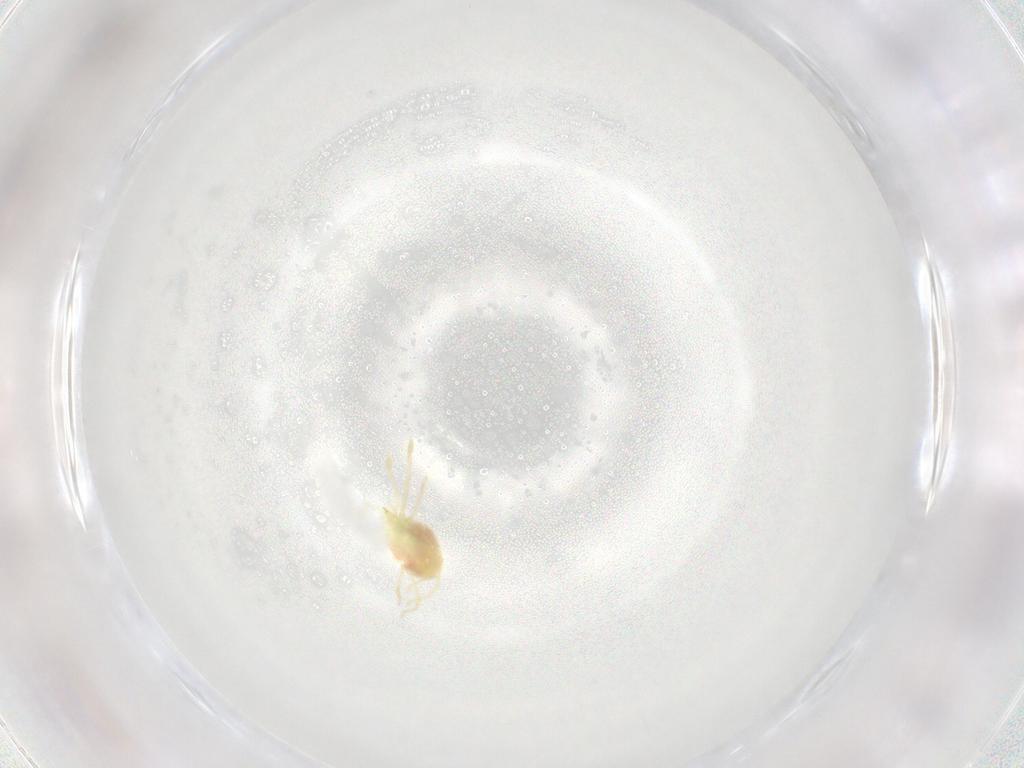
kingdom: Animalia
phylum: Arthropoda
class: Arachnida
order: Trombidiformes
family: Erythraeidae
